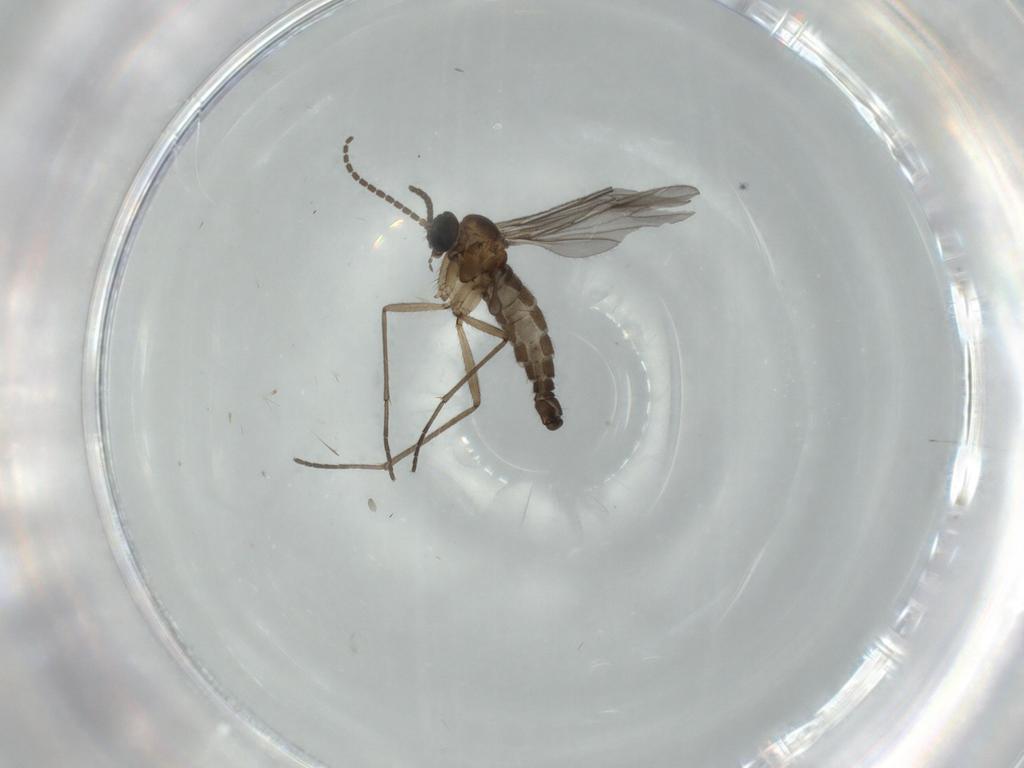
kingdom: Animalia
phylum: Arthropoda
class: Insecta
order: Diptera
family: Sciaridae
